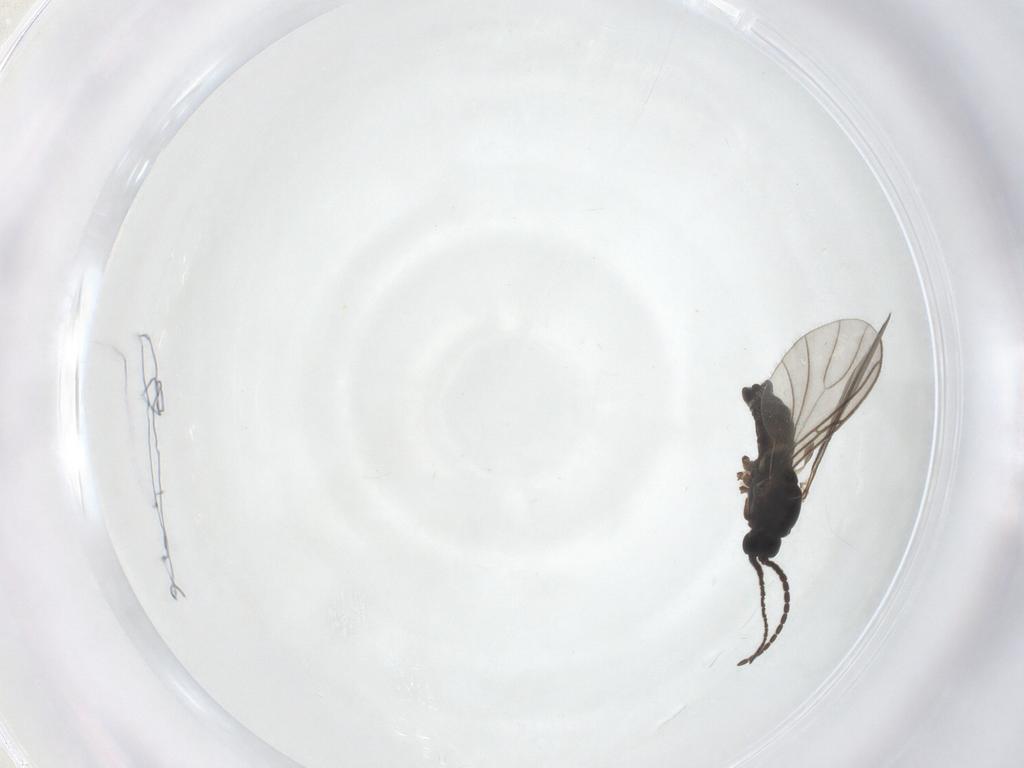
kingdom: Animalia
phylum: Arthropoda
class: Insecta
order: Diptera
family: Sciaridae
